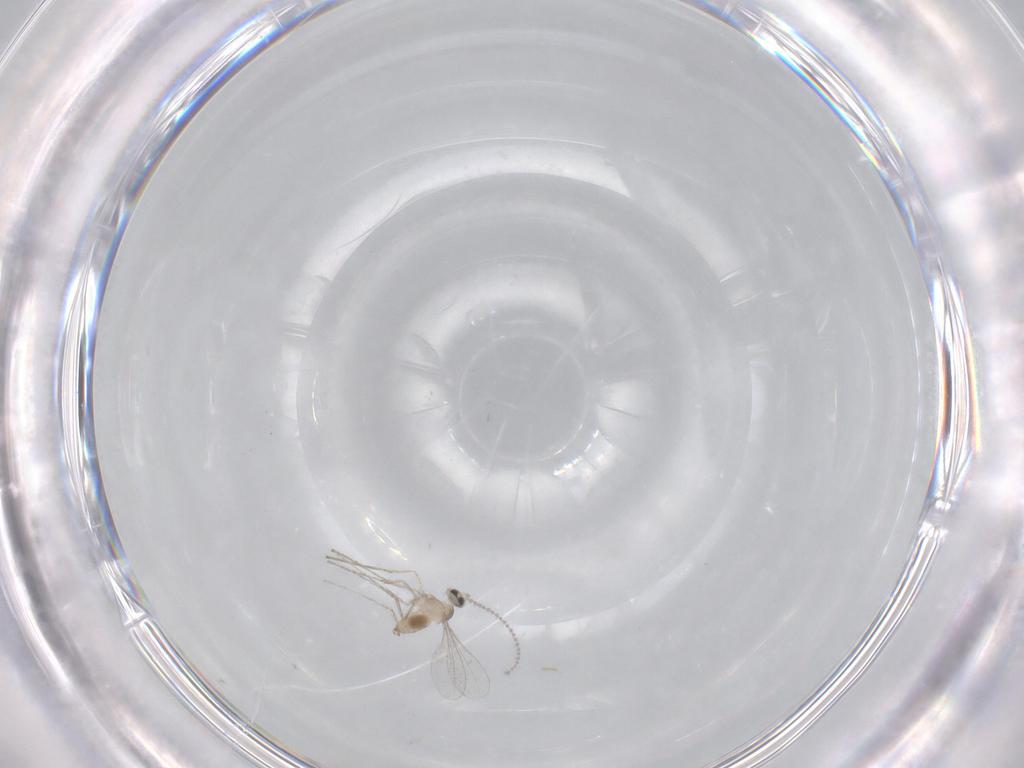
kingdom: Animalia
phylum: Arthropoda
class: Insecta
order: Diptera
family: Cecidomyiidae
